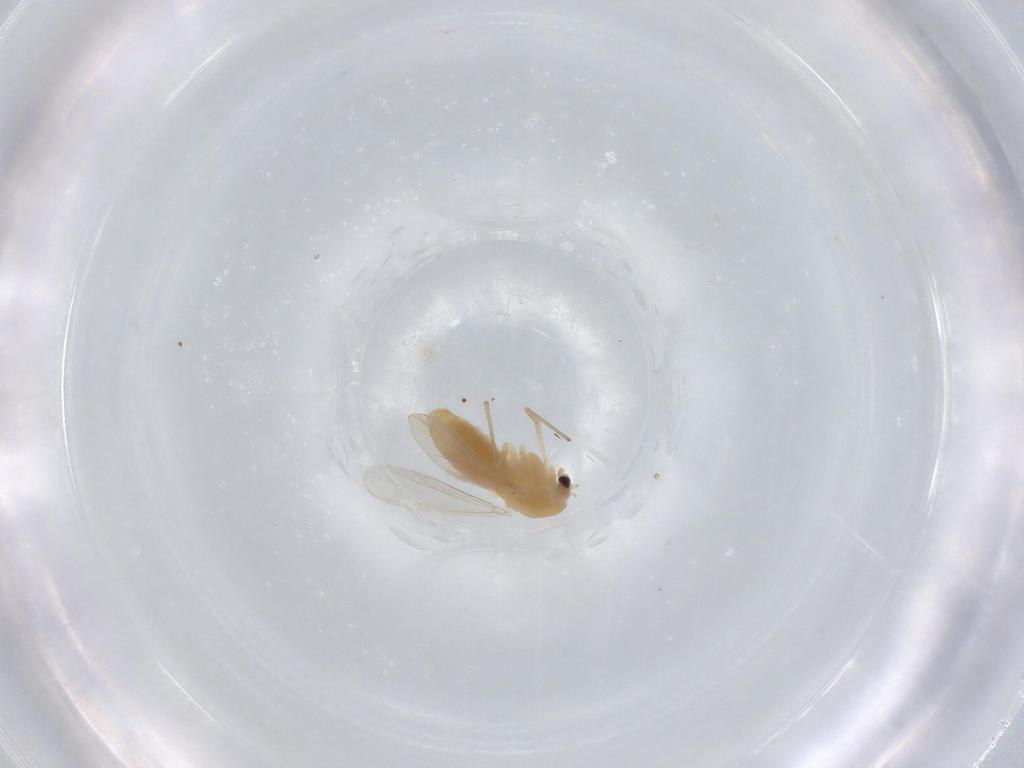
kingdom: Animalia
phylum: Arthropoda
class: Insecta
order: Diptera
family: Chironomidae
